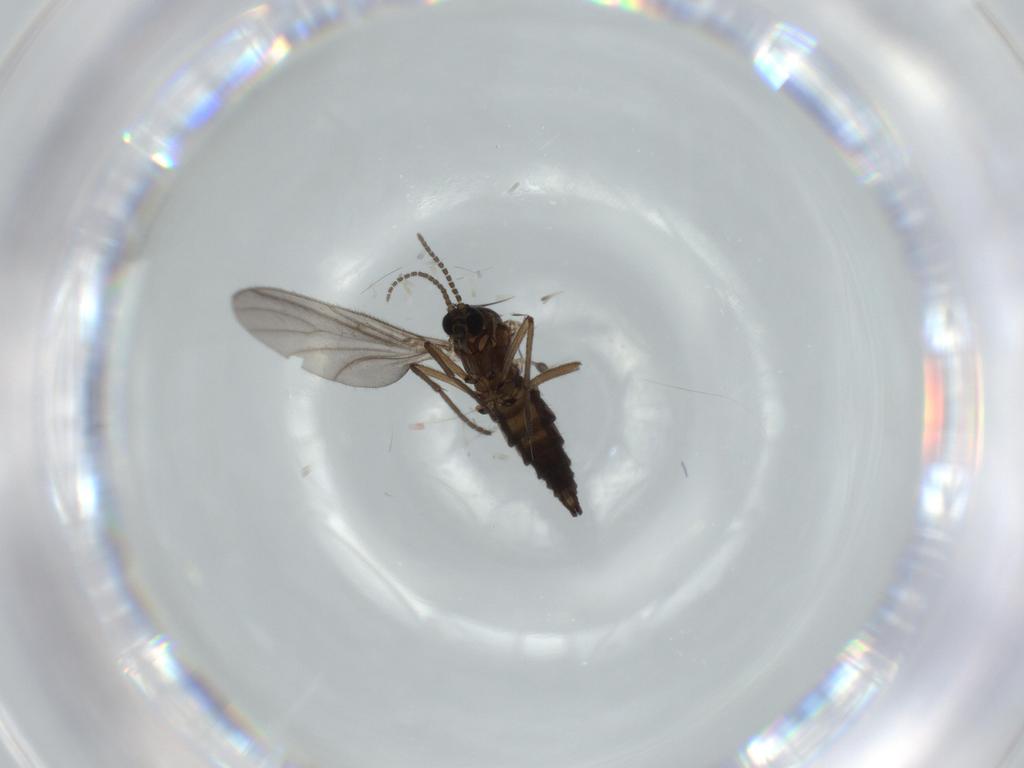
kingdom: Animalia
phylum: Arthropoda
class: Insecta
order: Diptera
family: Sciaridae
